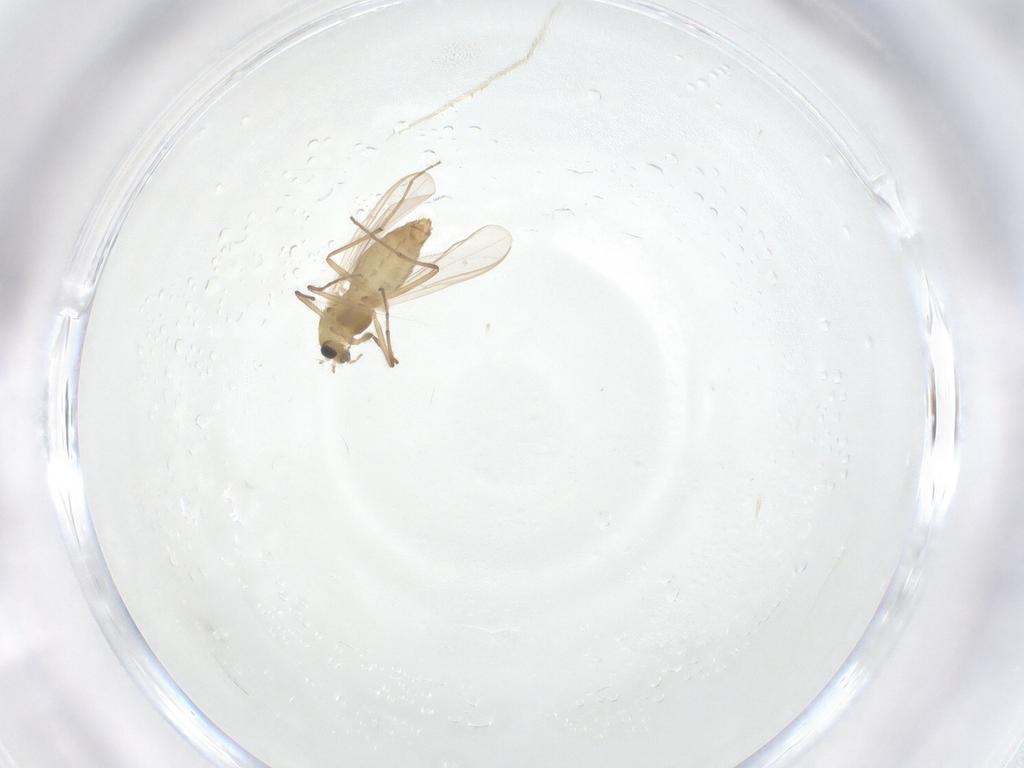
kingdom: Animalia
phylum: Arthropoda
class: Insecta
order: Diptera
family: Chironomidae
